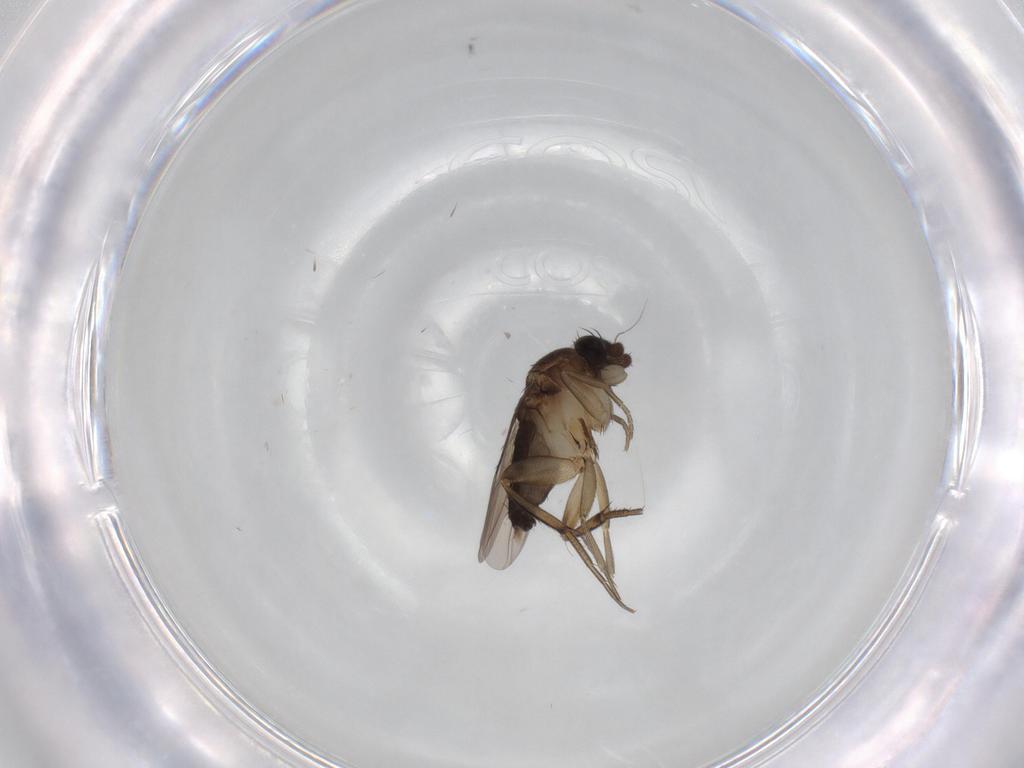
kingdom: Animalia
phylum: Arthropoda
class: Insecta
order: Diptera
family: Phoridae
